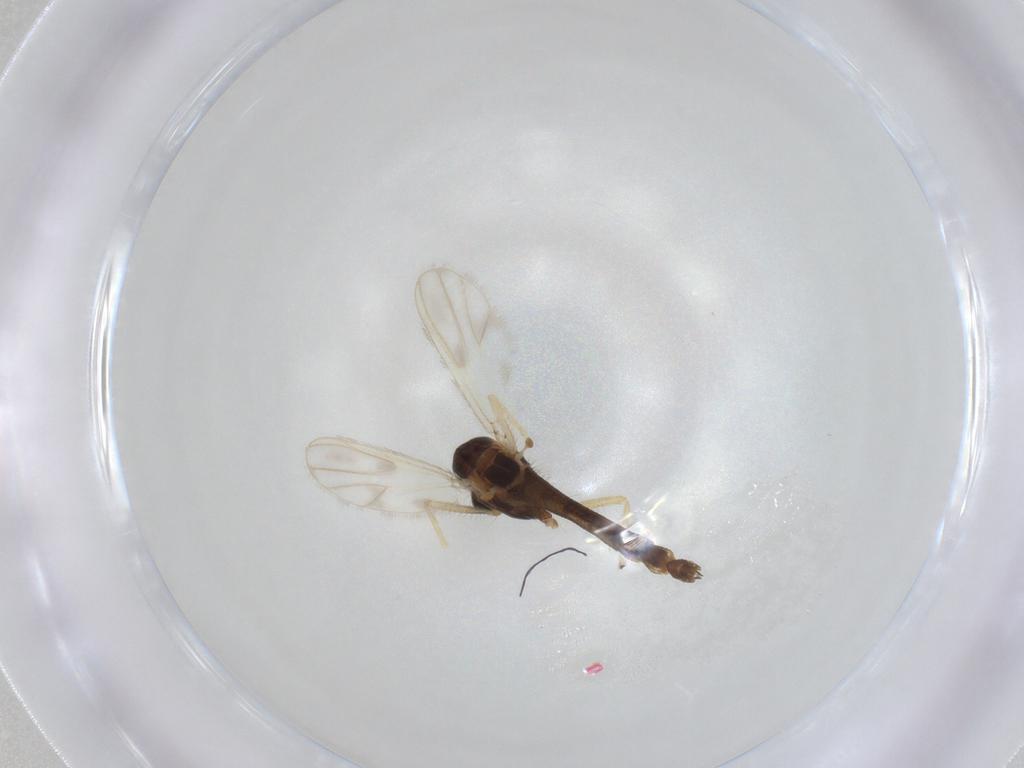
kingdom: Animalia
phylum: Arthropoda
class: Insecta
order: Diptera
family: Chironomidae
